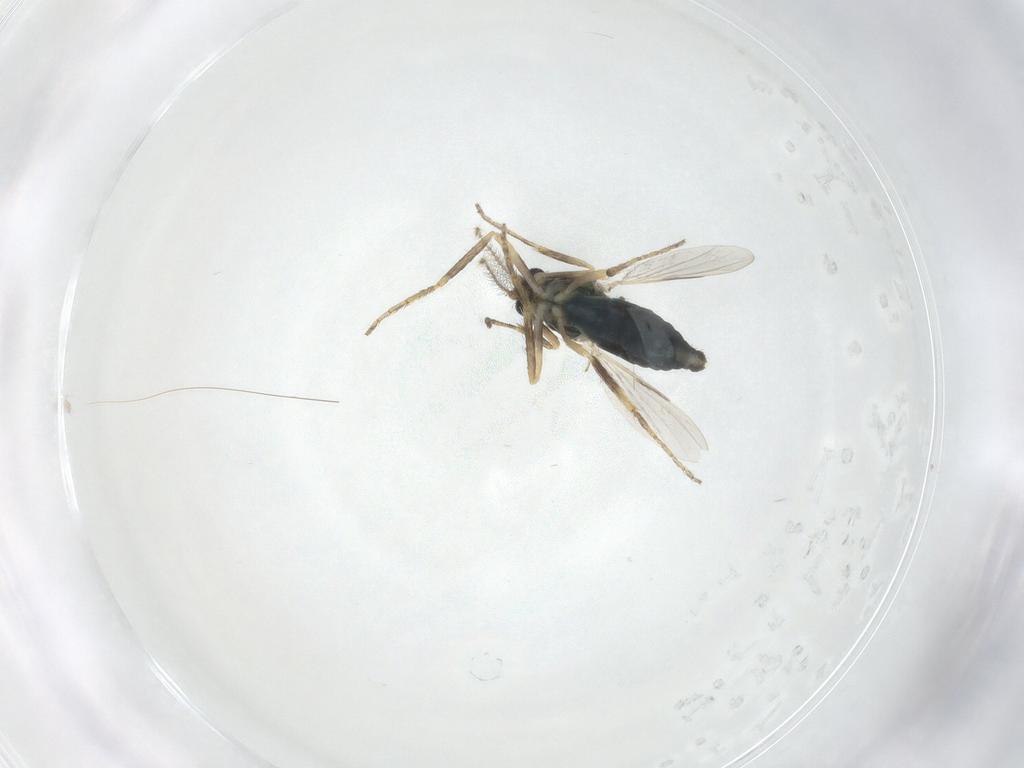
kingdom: Animalia
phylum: Arthropoda
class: Insecta
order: Diptera
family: Ceratopogonidae
